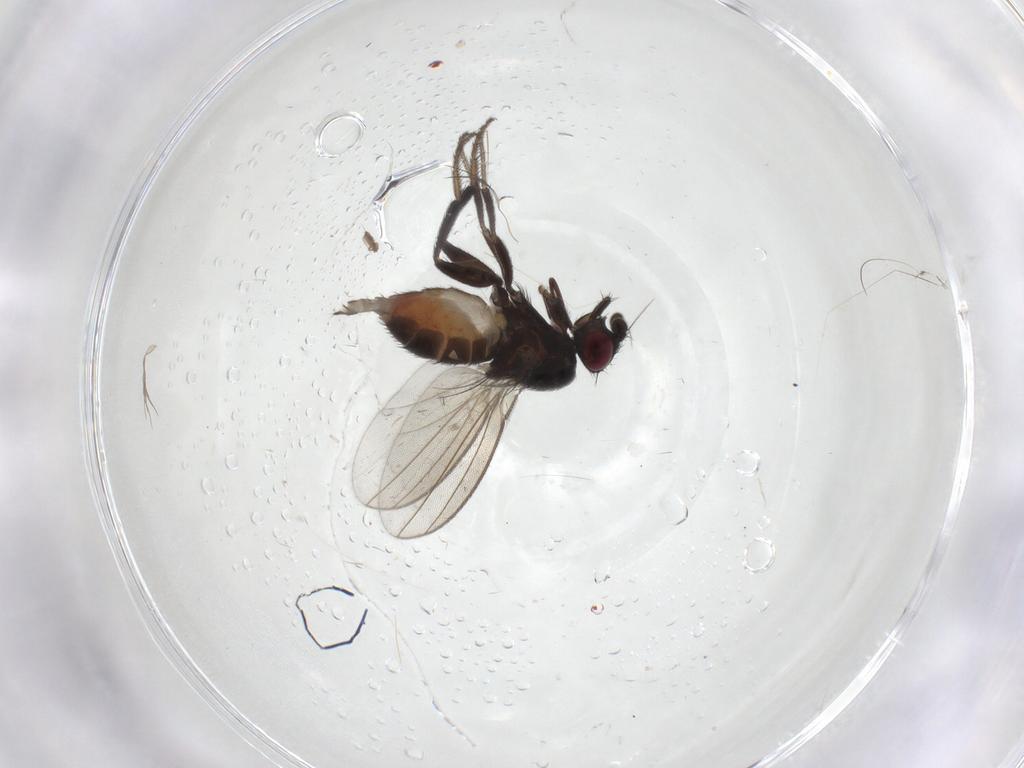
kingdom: Animalia
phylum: Arthropoda
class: Insecta
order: Diptera
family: Milichiidae
